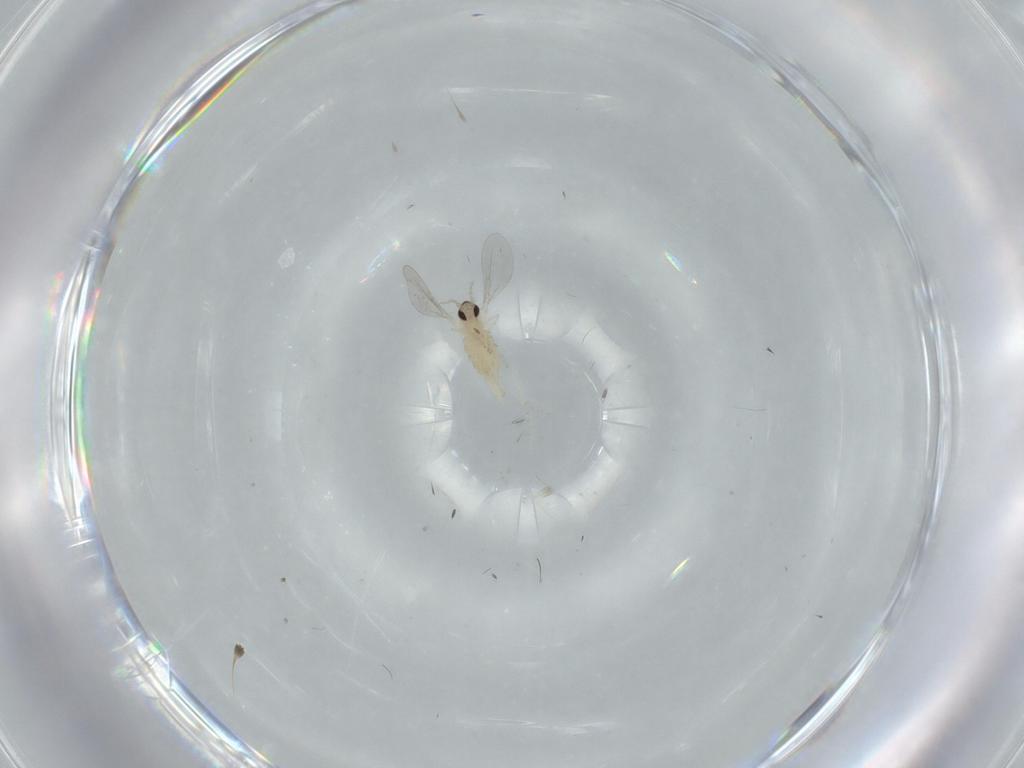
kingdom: Animalia
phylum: Arthropoda
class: Insecta
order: Diptera
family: Cecidomyiidae
